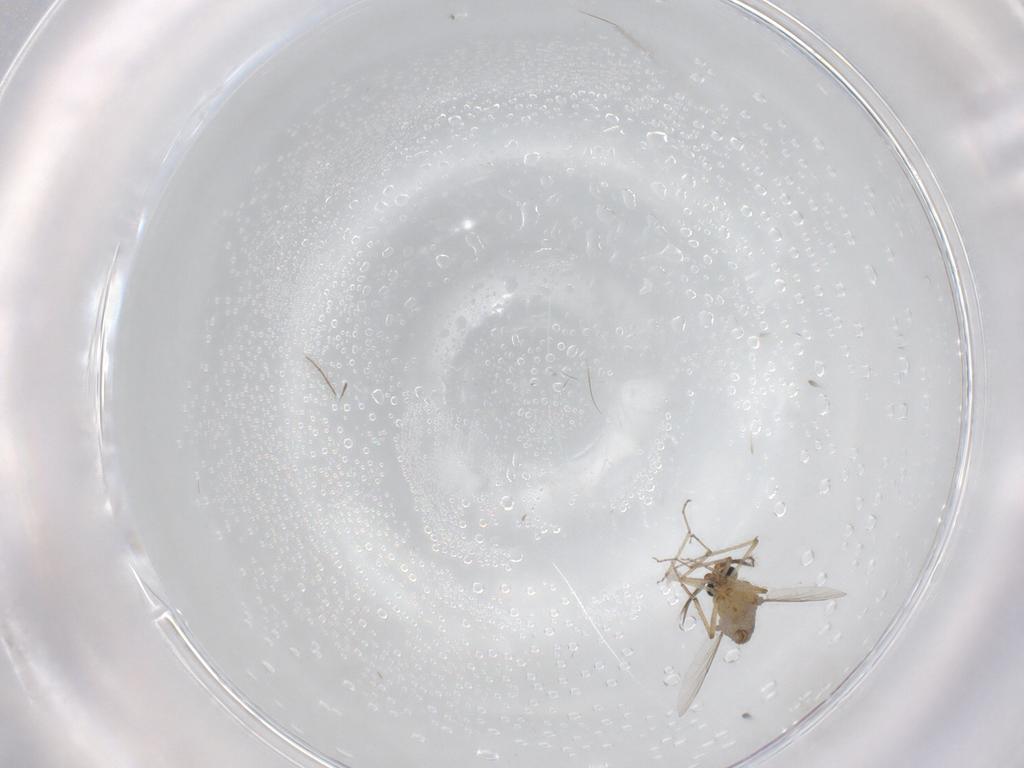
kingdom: Animalia
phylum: Arthropoda
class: Insecta
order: Diptera
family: Cecidomyiidae
